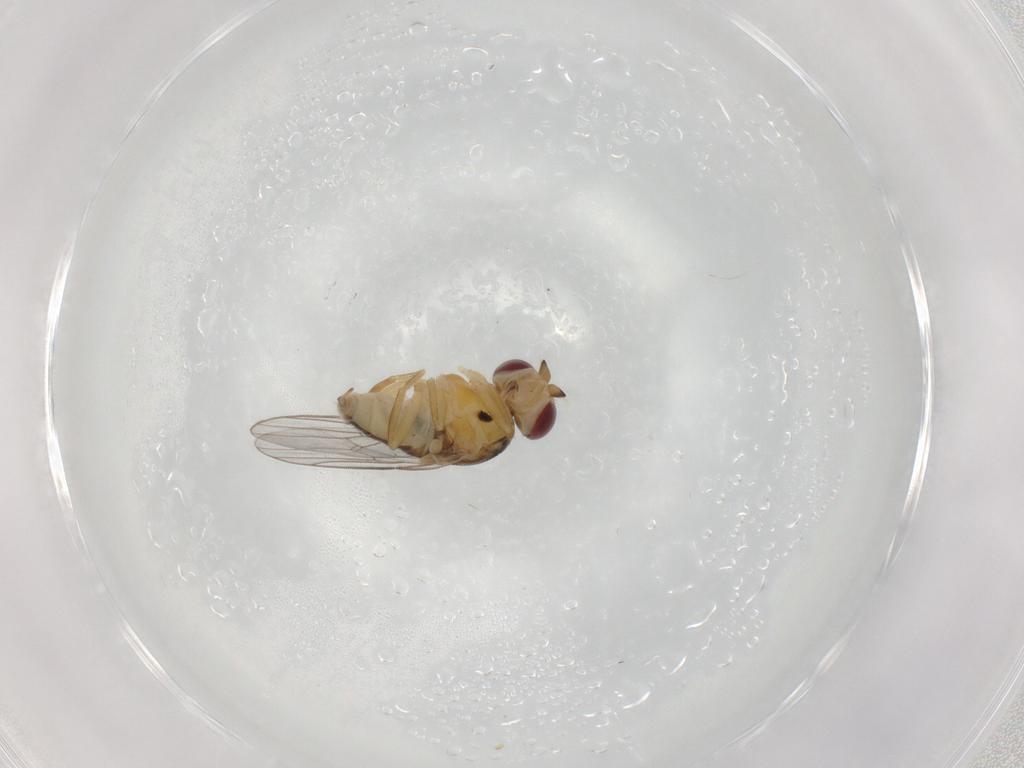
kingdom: Animalia
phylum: Arthropoda
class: Insecta
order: Diptera
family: Chloropidae
